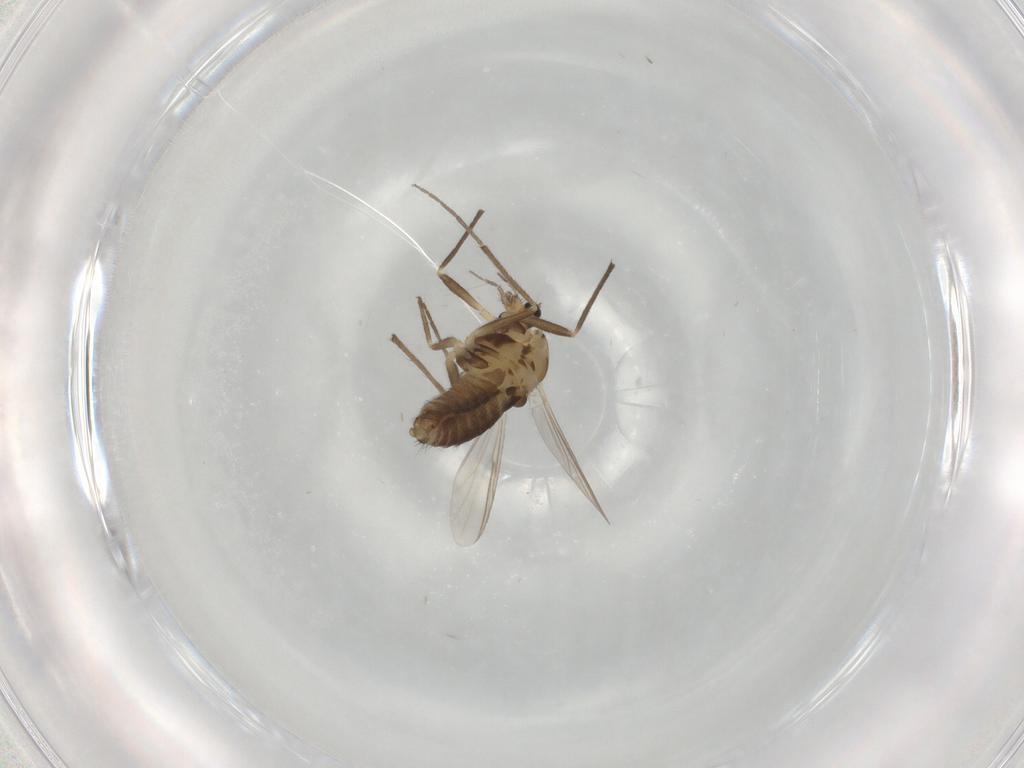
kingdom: Animalia
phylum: Arthropoda
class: Insecta
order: Diptera
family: Chironomidae
